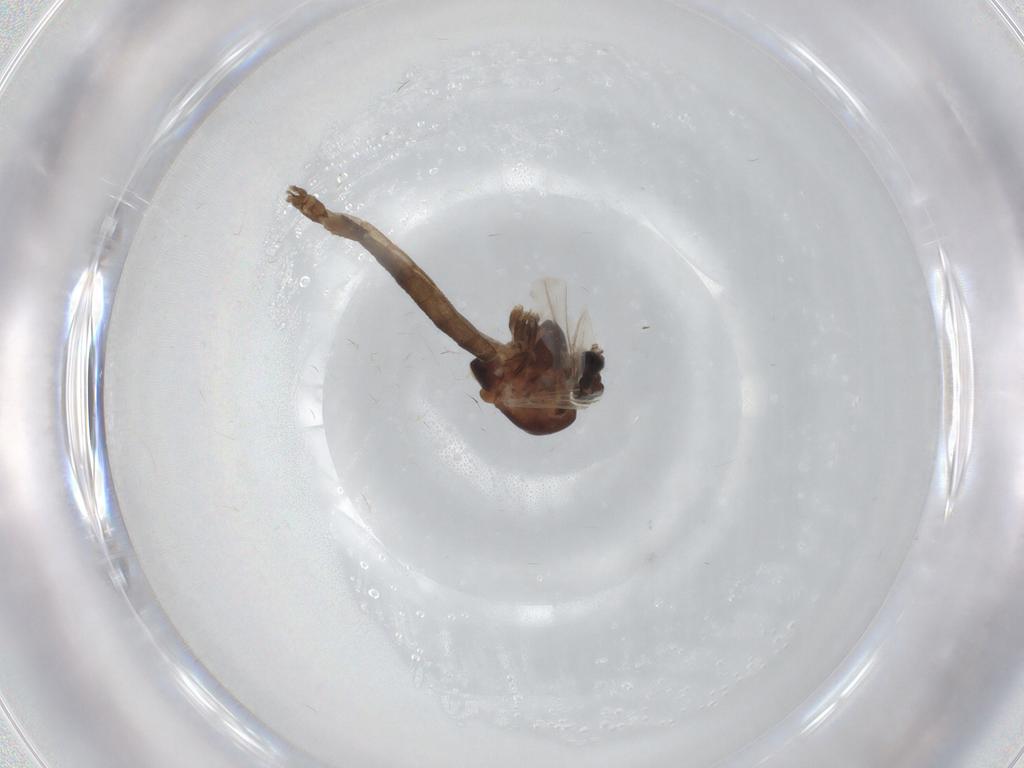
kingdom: Animalia
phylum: Arthropoda
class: Insecta
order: Diptera
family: Chironomidae
